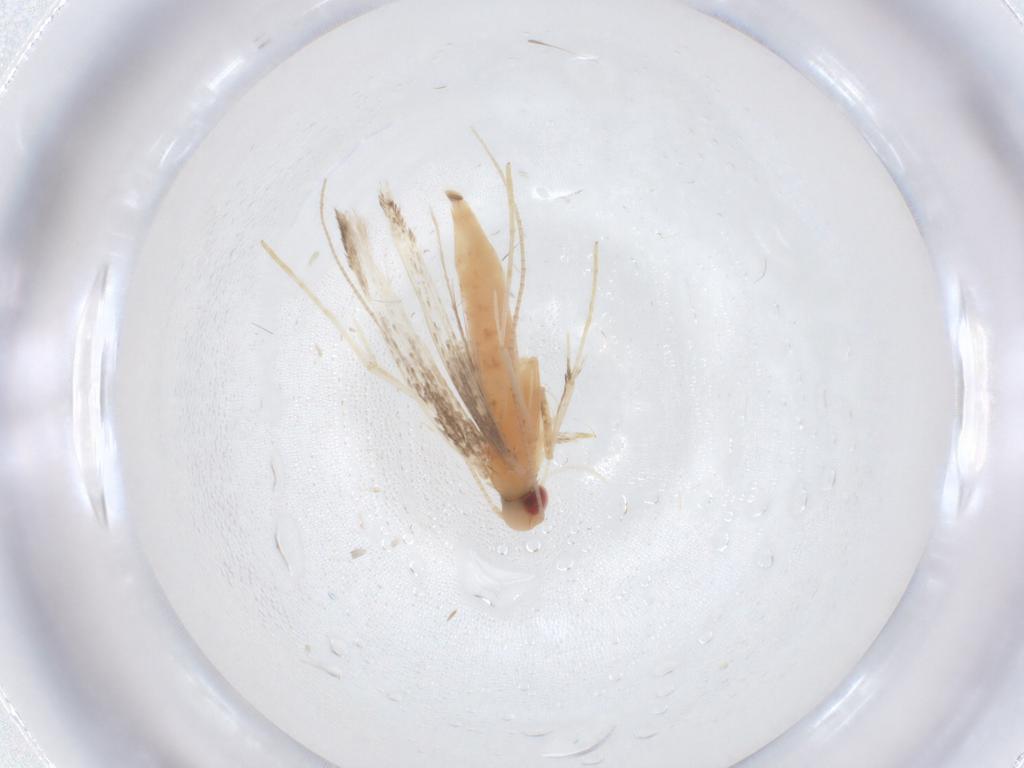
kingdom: Animalia
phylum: Arthropoda
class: Insecta
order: Lepidoptera
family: Gracillariidae
